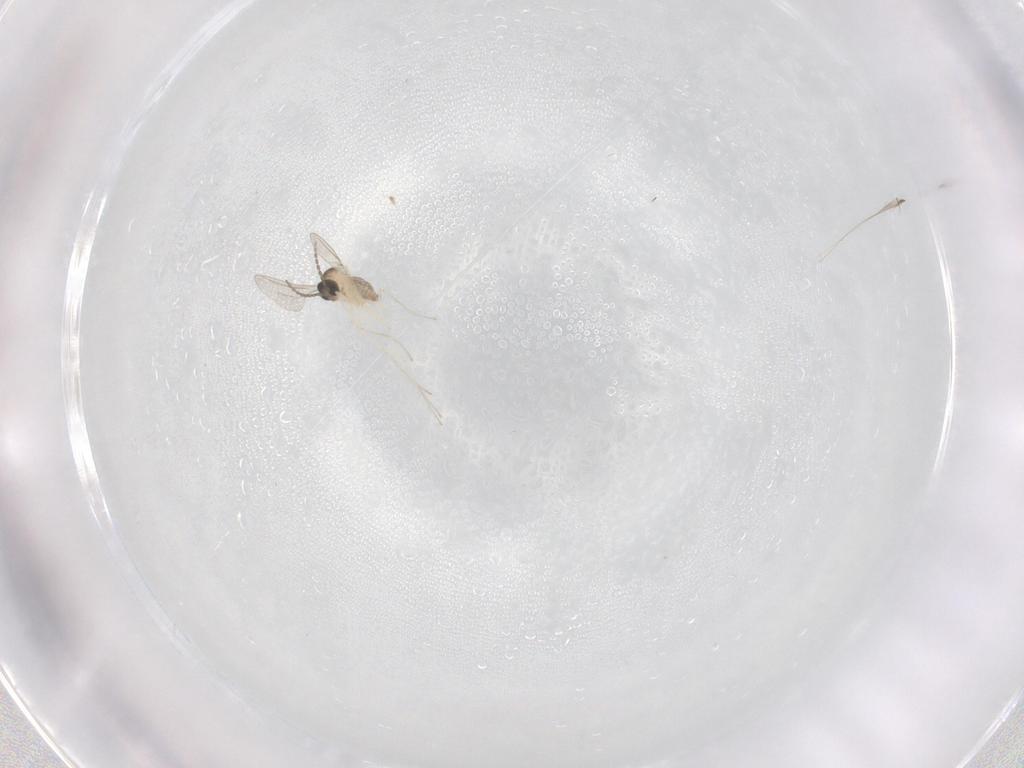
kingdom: Animalia
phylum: Arthropoda
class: Insecta
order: Diptera
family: Cecidomyiidae
